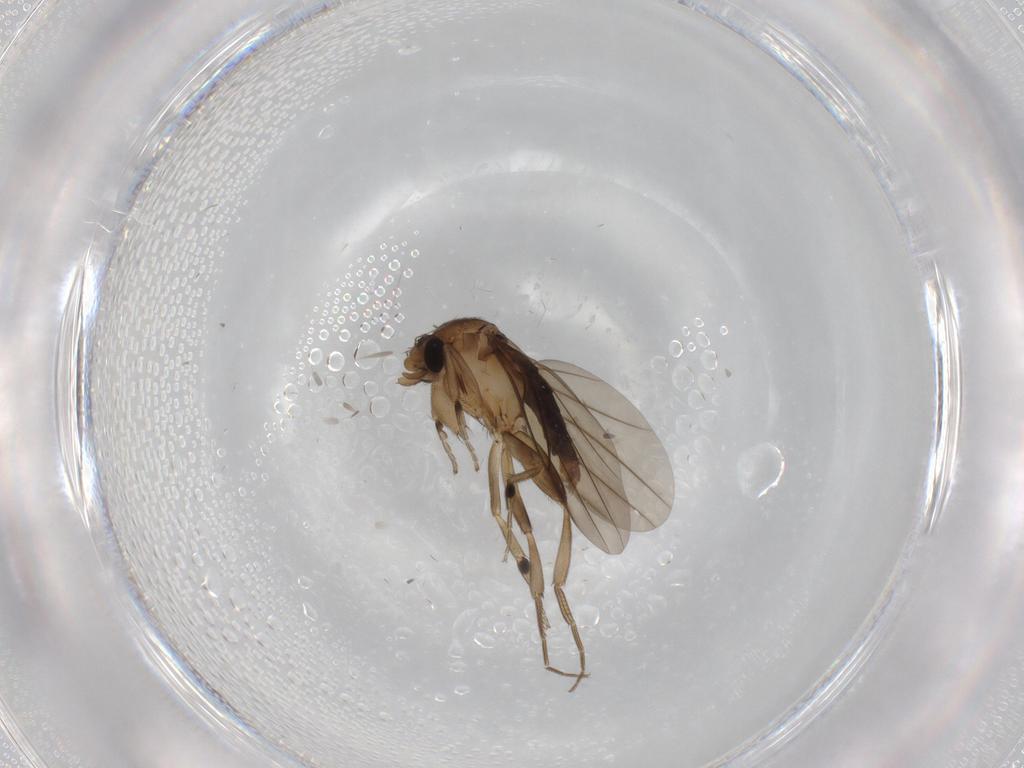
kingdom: Animalia
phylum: Arthropoda
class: Insecta
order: Diptera
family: Phoridae
